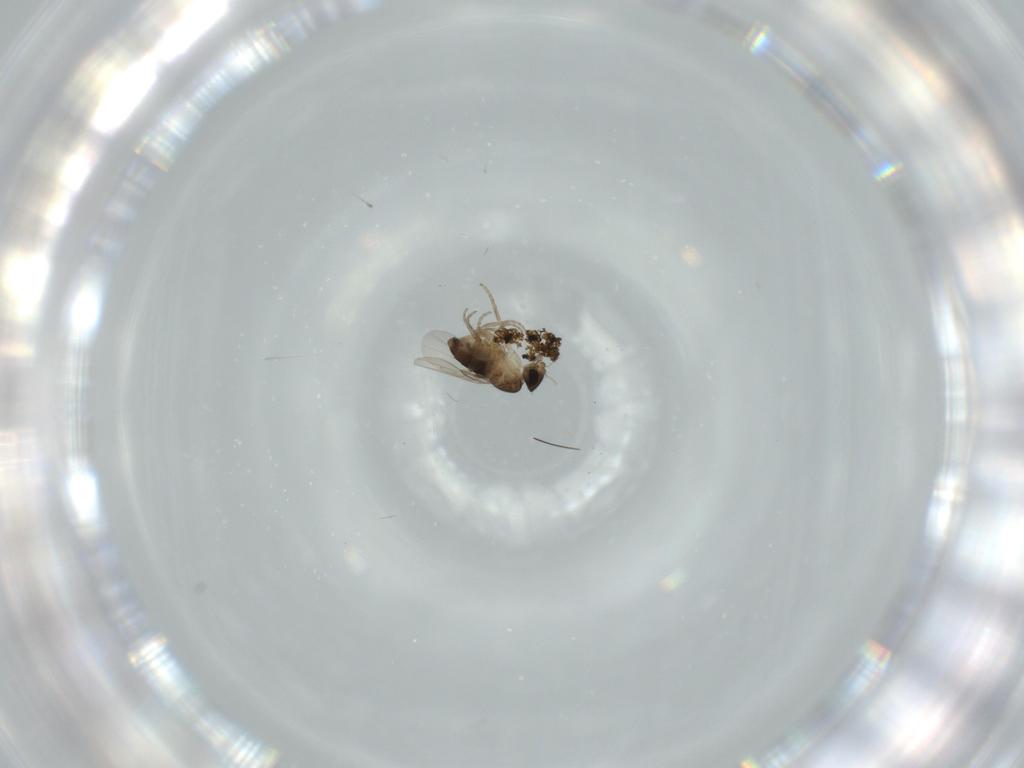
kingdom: Animalia
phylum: Arthropoda
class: Insecta
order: Diptera
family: Phoridae
